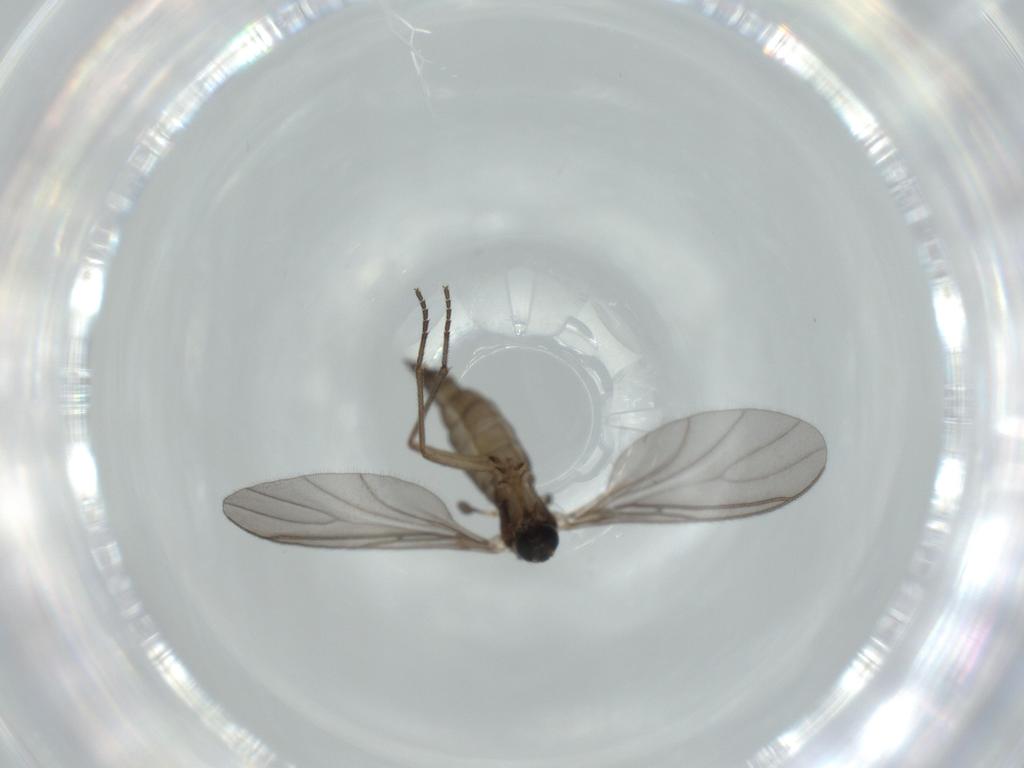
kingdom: Animalia
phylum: Arthropoda
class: Insecta
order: Diptera
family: Sciaridae
